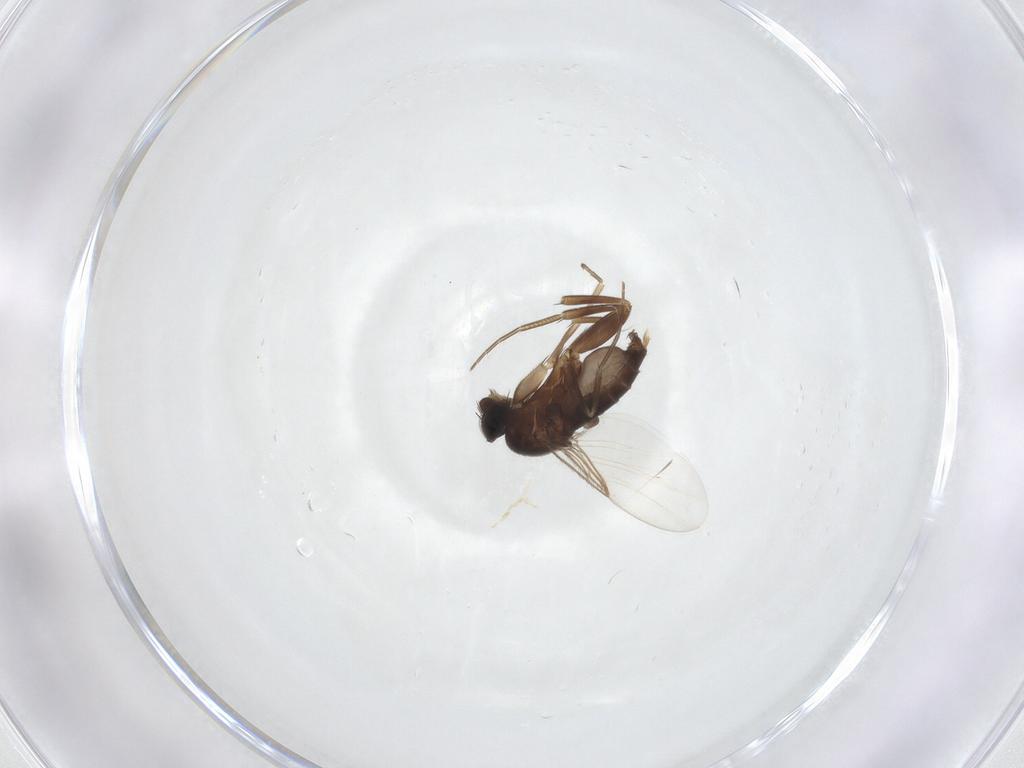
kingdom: Animalia
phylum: Arthropoda
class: Insecta
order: Diptera
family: Phoridae
